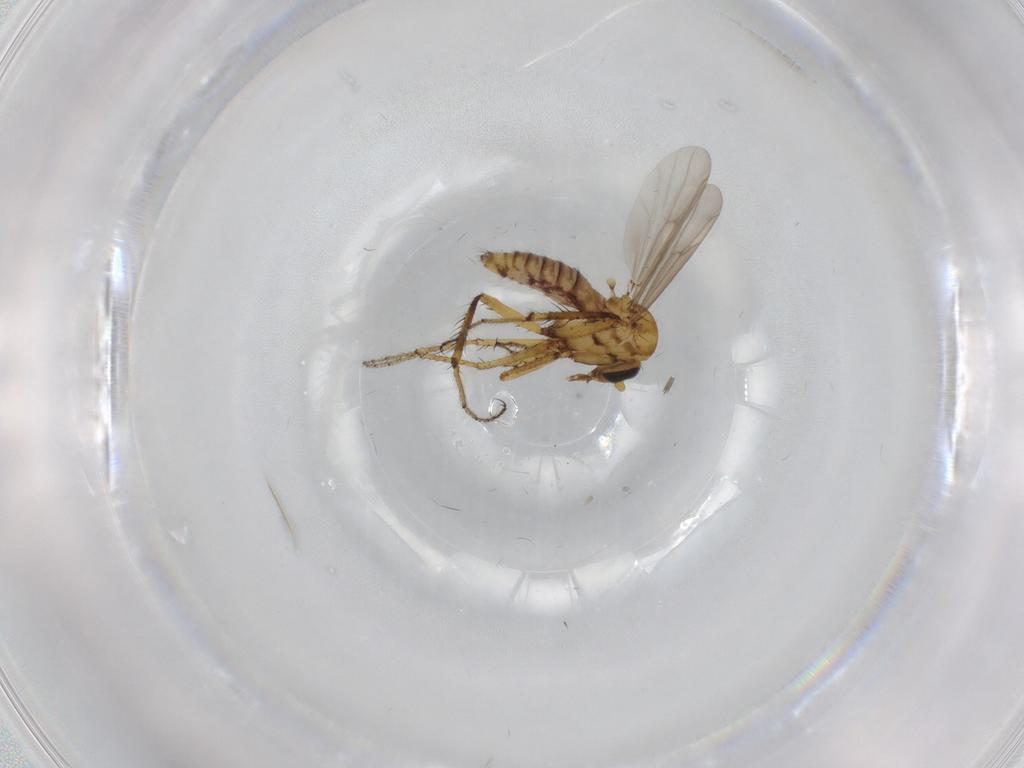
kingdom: Animalia
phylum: Arthropoda
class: Insecta
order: Diptera
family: Ceratopogonidae
